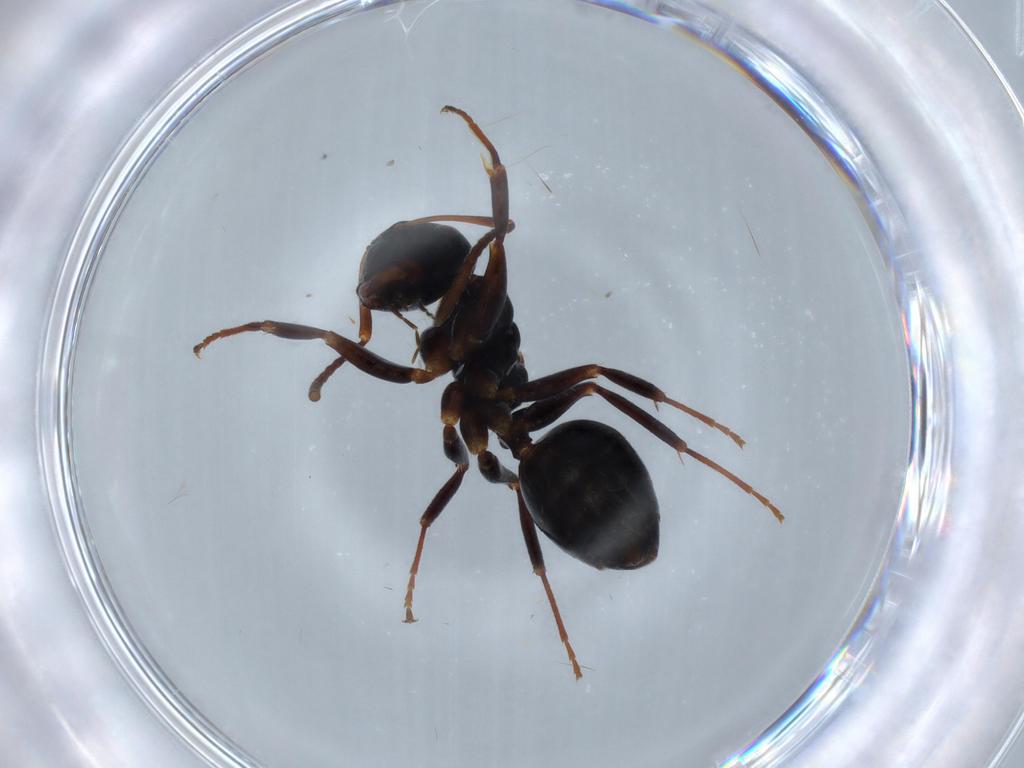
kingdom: Animalia
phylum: Arthropoda
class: Insecta
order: Hymenoptera
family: Formicidae
